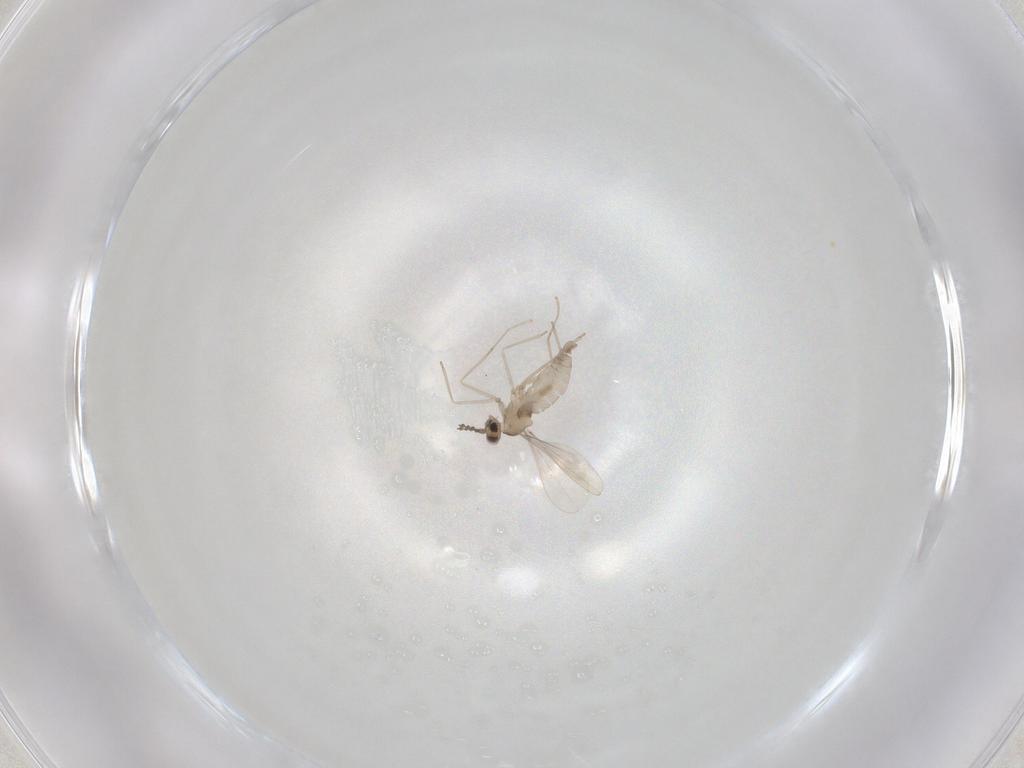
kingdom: Animalia
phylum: Arthropoda
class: Insecta
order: Diptera
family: Cecidomyiidae
